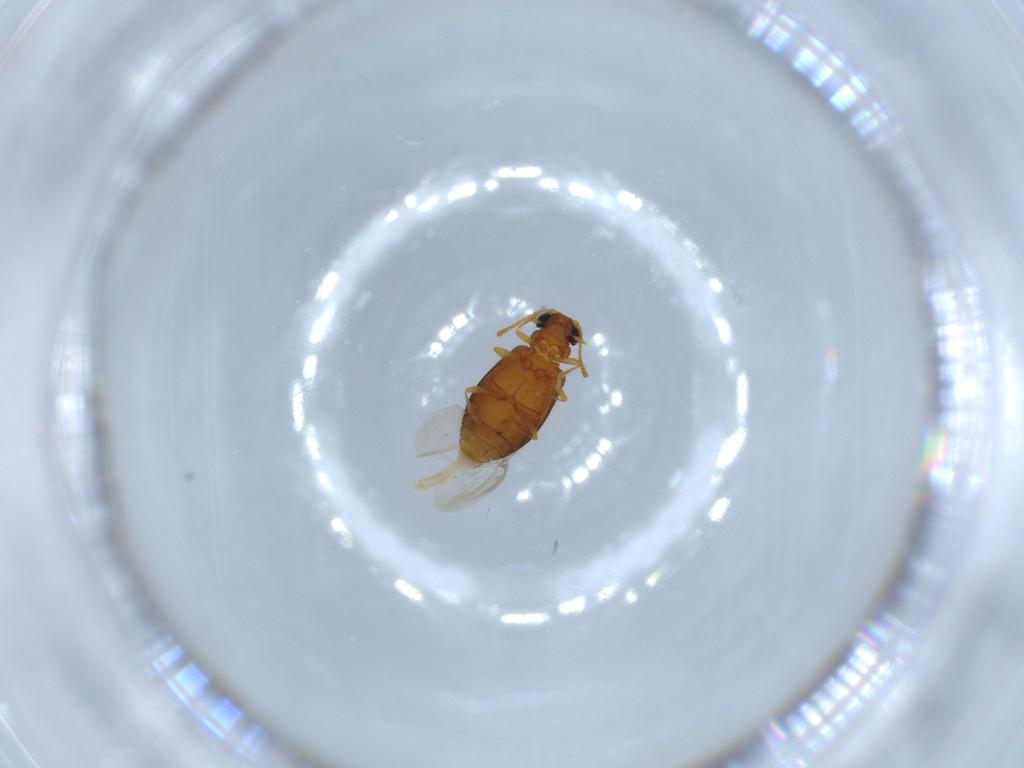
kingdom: Animalia
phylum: Arthropoda
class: Insecta
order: Coleoptera
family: Aderidae
